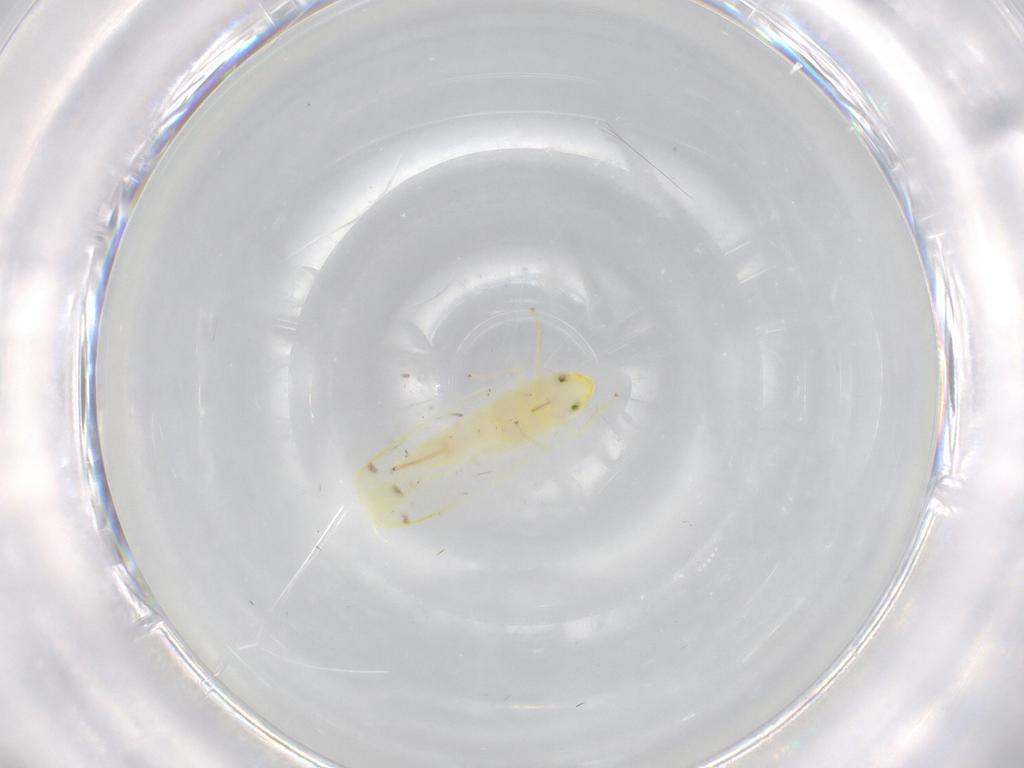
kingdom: Animalia
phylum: Arthropoda
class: Insecta
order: Hemiptera
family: Cicadellidae
